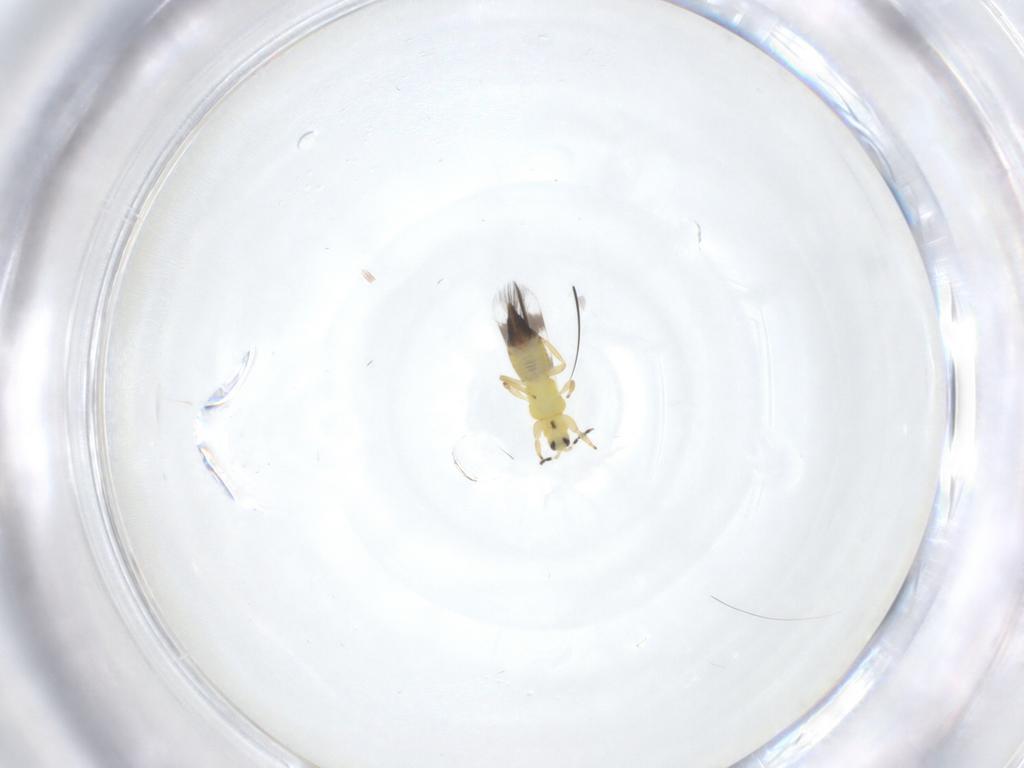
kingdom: Animalia
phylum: Arthropoda
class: Insecta
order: Thysanoptera
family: Aeolothripidae
